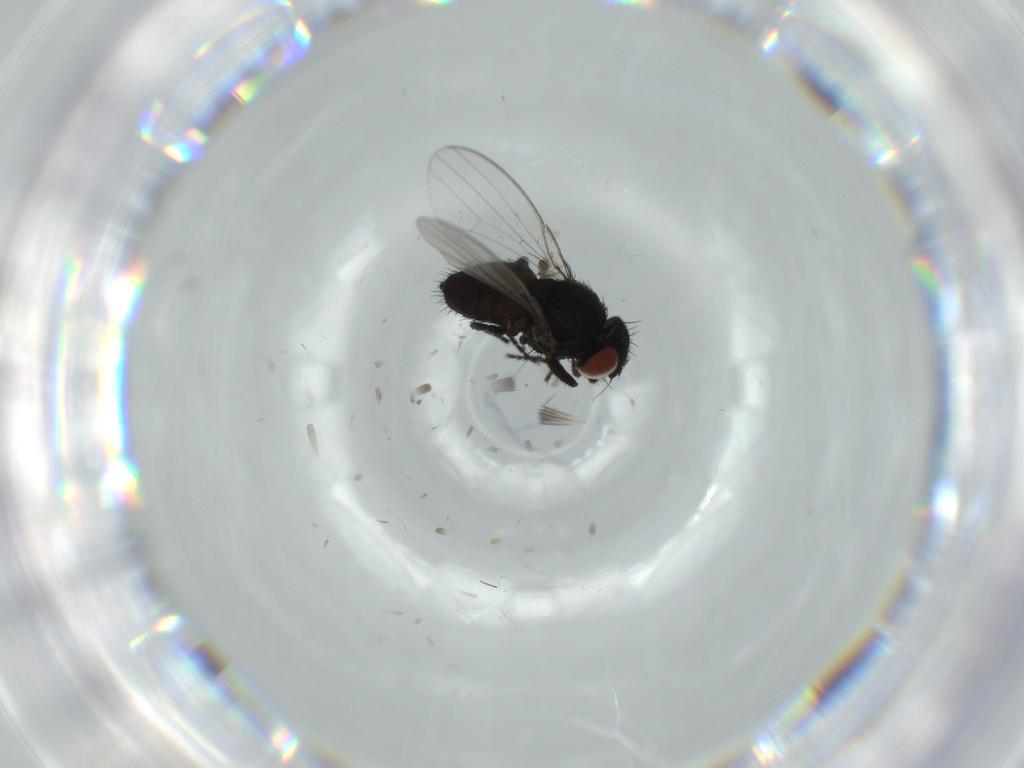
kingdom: Animalia
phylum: Arthropoda
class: Insecta
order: Diptera
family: Milichiidae
